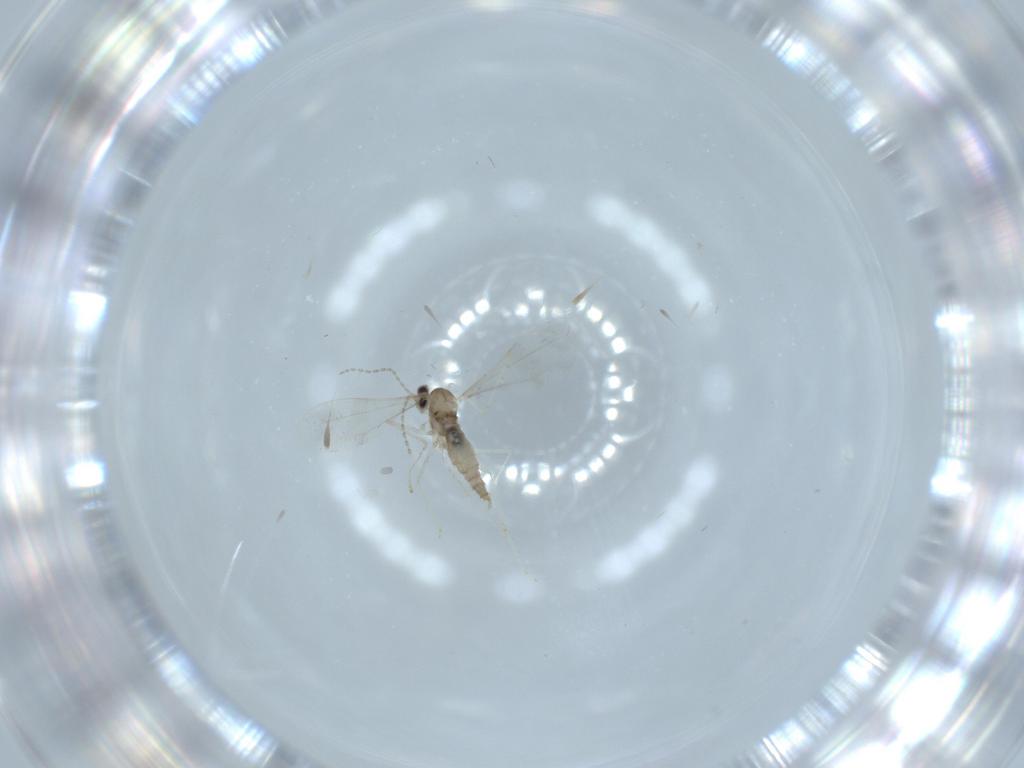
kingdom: Animalia
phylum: Arthropoda
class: Insecta
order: Diptera
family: Cecidomyiidae
